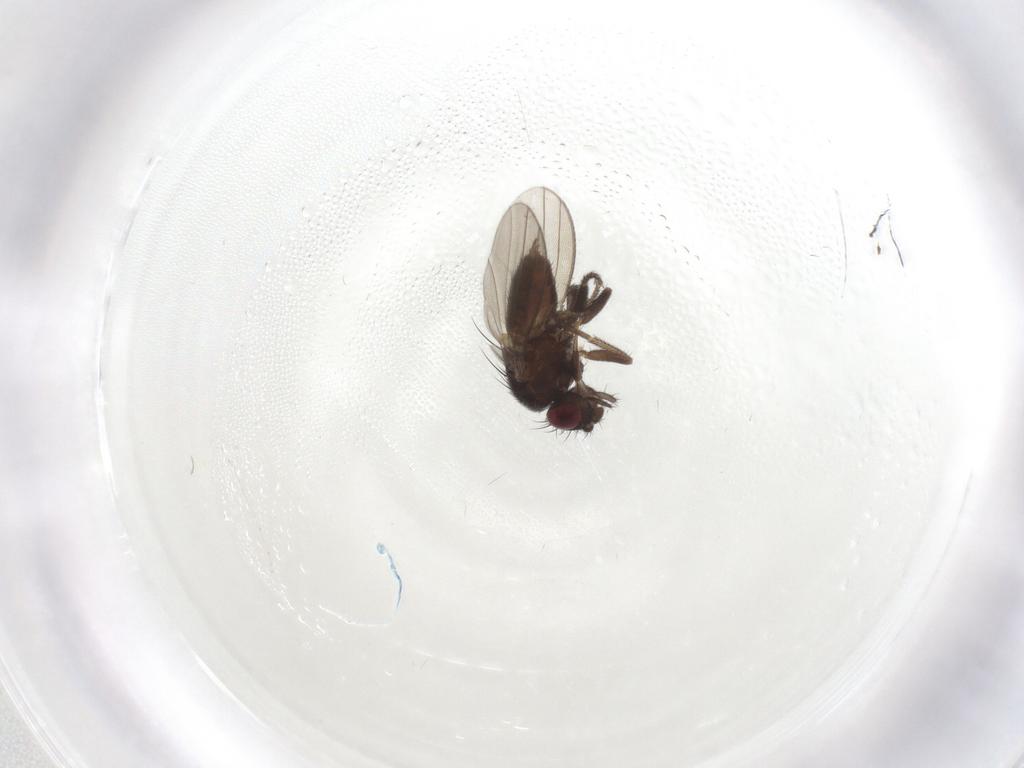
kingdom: Animalia
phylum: Arthropoda
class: Insecta
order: Diptera
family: Milichiidae
